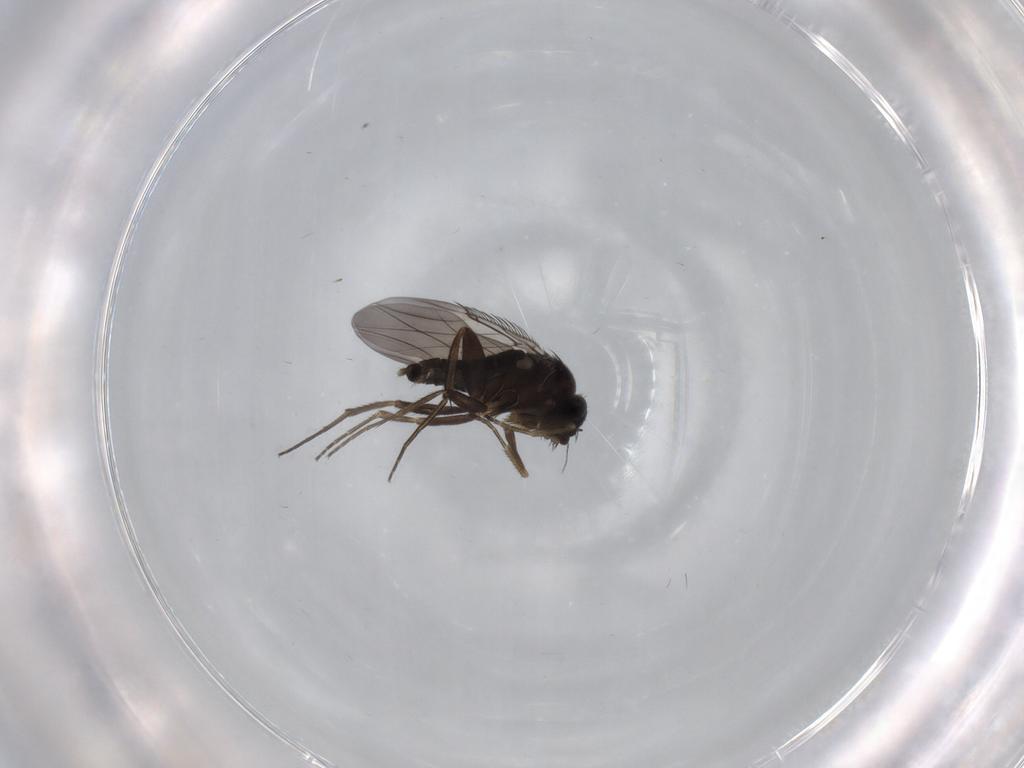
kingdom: Animalia
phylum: Arthropoda
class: Insecta
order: Diptera
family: Phoridae
